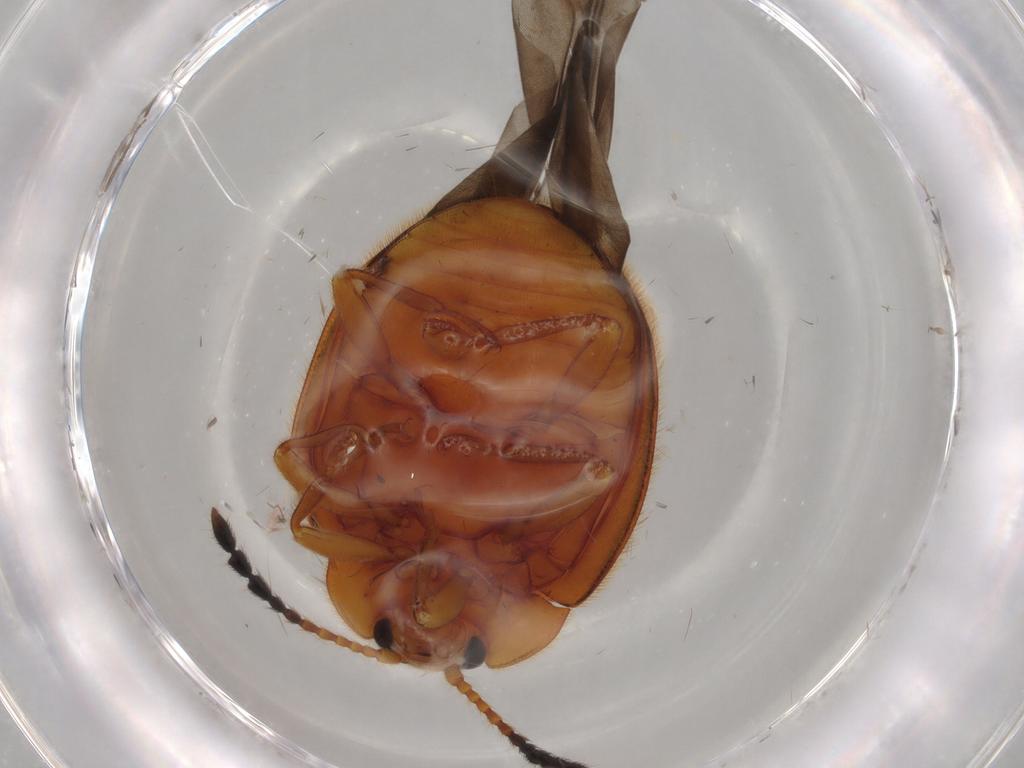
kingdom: Animalia
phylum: Arthropoda
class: Insecta
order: Coleoptera
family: Endomychidae
